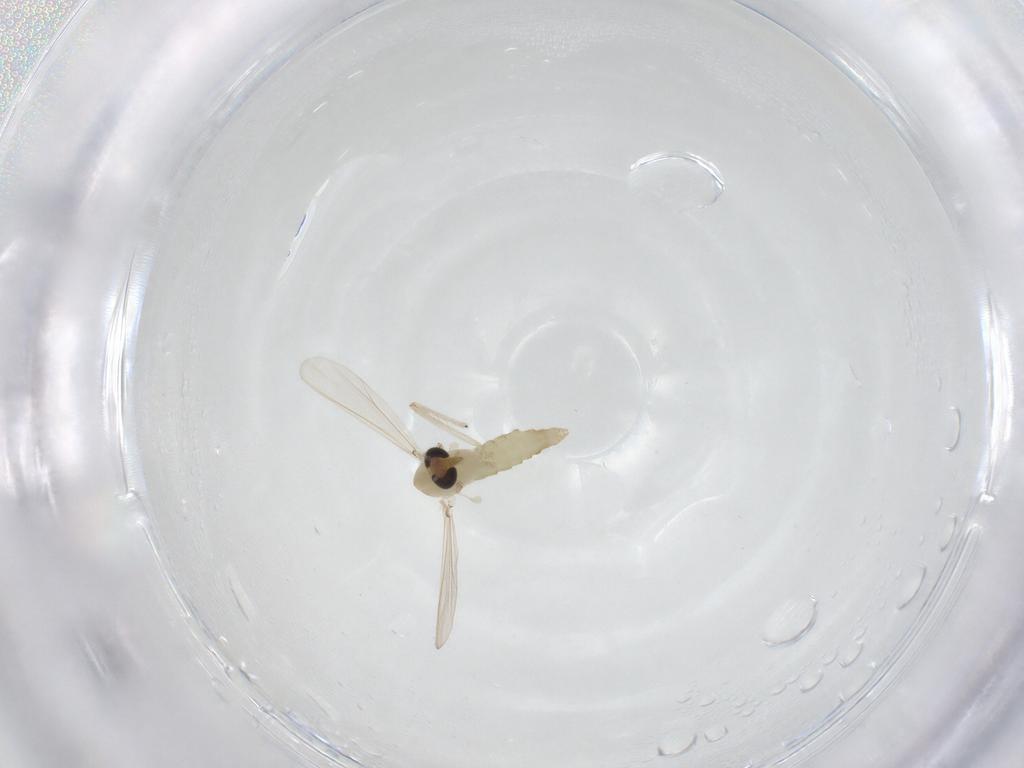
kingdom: Animalia
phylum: Arthropoda
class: Insecta
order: Diptera
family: Chironomidae
